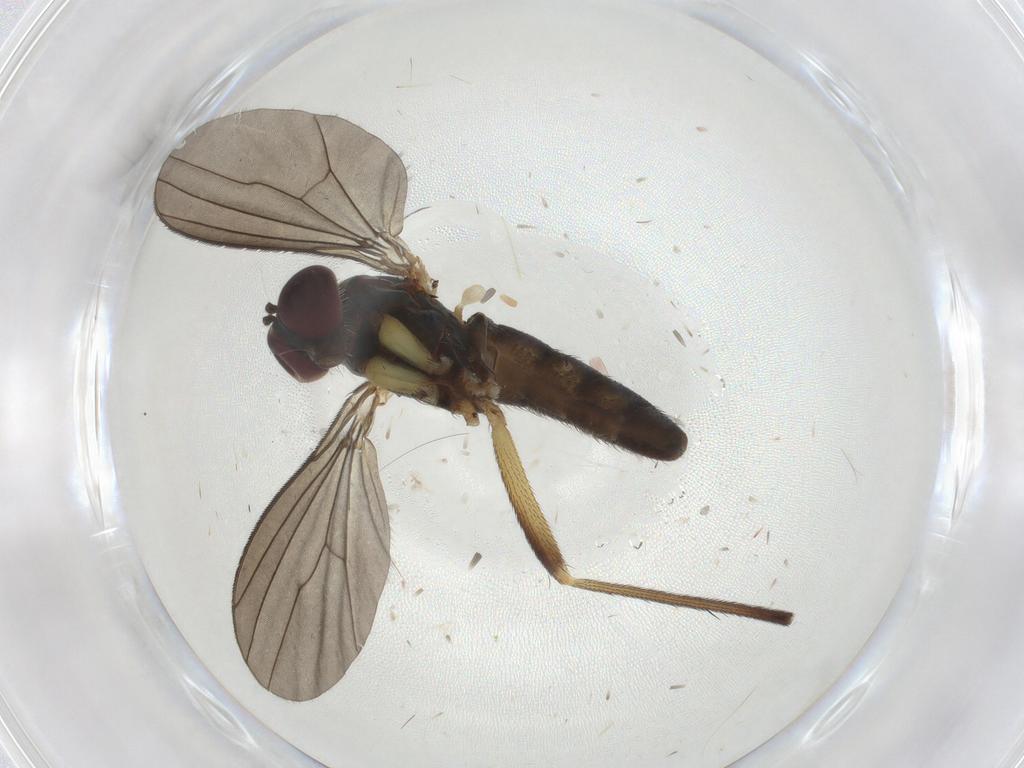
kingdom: Animalia
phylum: Arthropoda
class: Insecta
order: Diptera
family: Dolichopodidae
